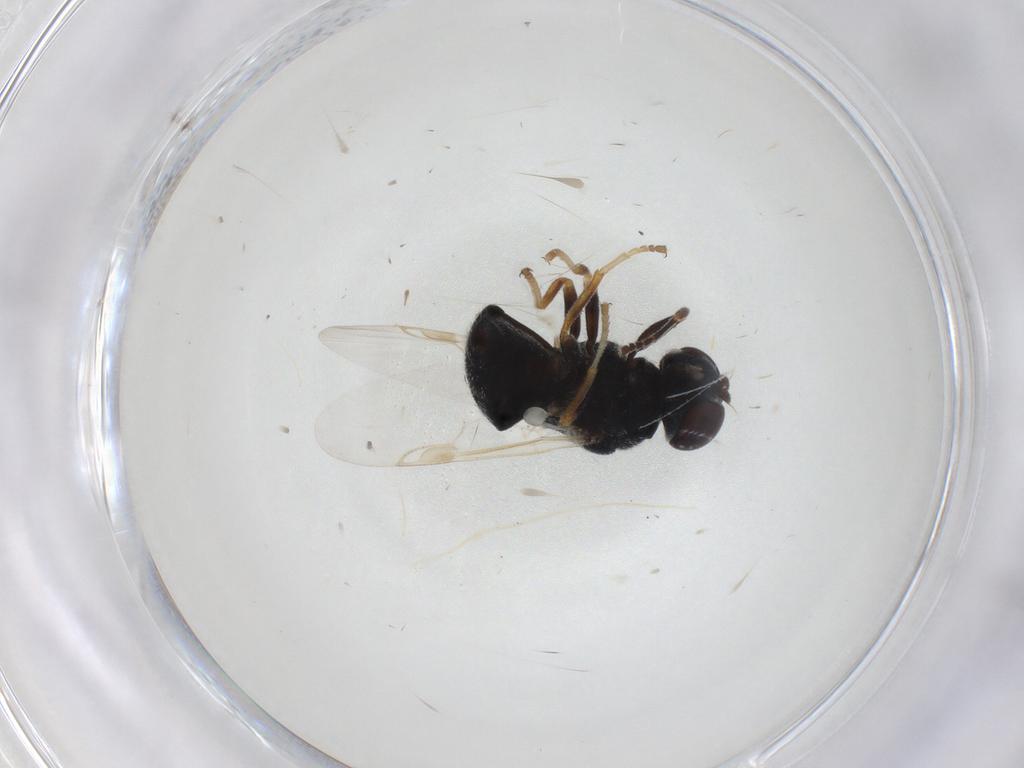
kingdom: Animalia
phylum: Arthropoda
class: Insecta
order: Diptera
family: Stratiomyidae
